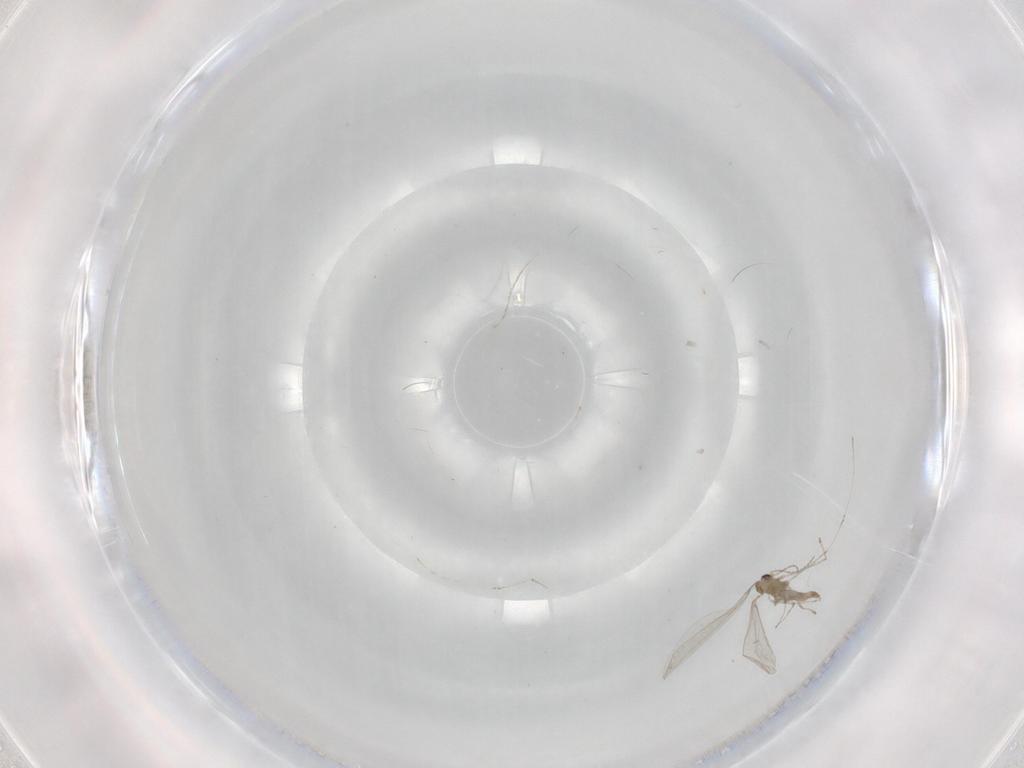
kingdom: Animalia
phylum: Arthropoda
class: Insecta
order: Diptera
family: Cecidomyiidae
